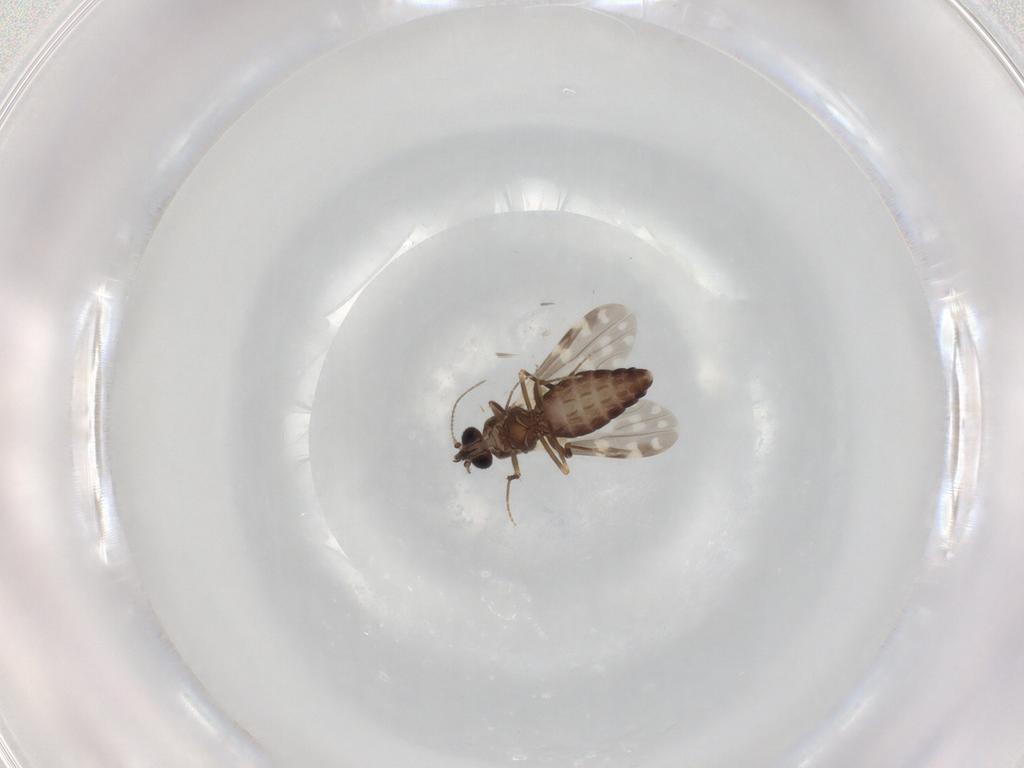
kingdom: Animalia
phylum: Arthropoda
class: Insecta
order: Diptera
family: Ceratopogonidae
